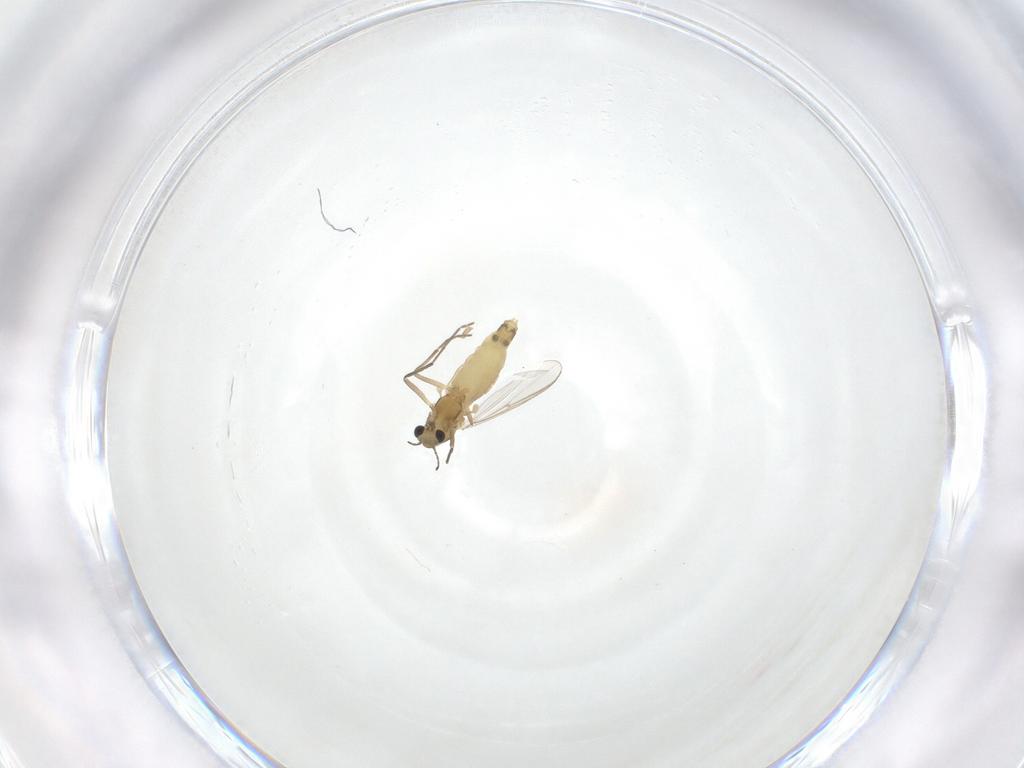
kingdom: Animalia
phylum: Arthropoda
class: Insecta
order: Diptera
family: Chironomidae
